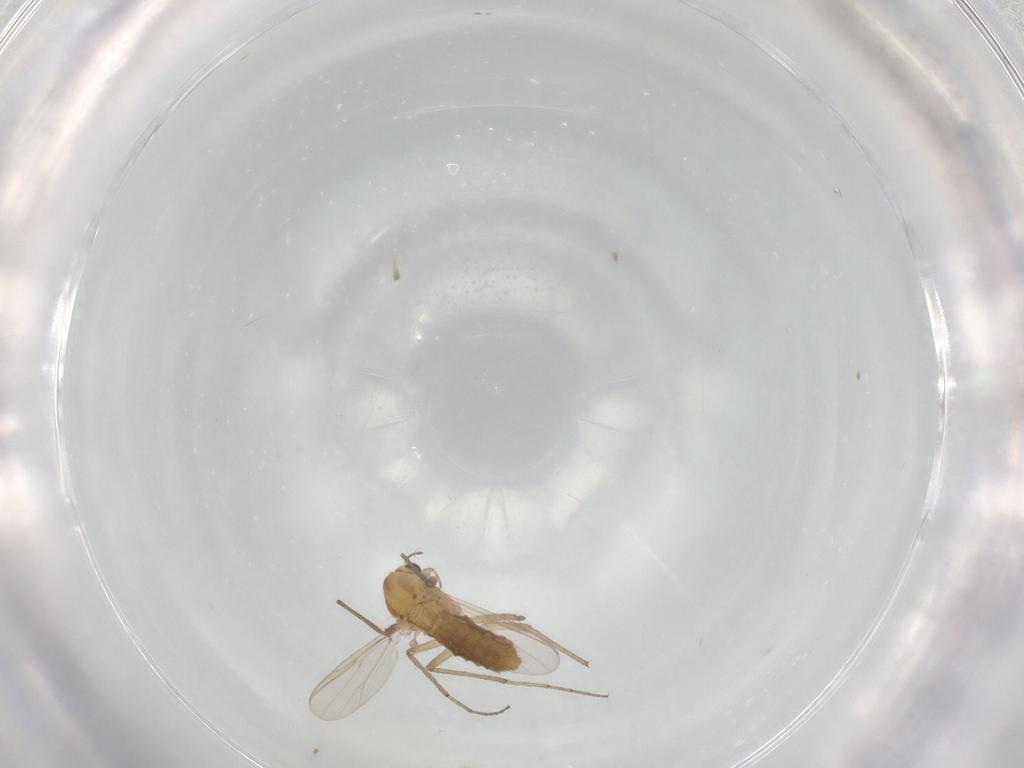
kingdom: Animalia
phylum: Arthropoda
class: Insecta
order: Diptera
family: Chironomidae
